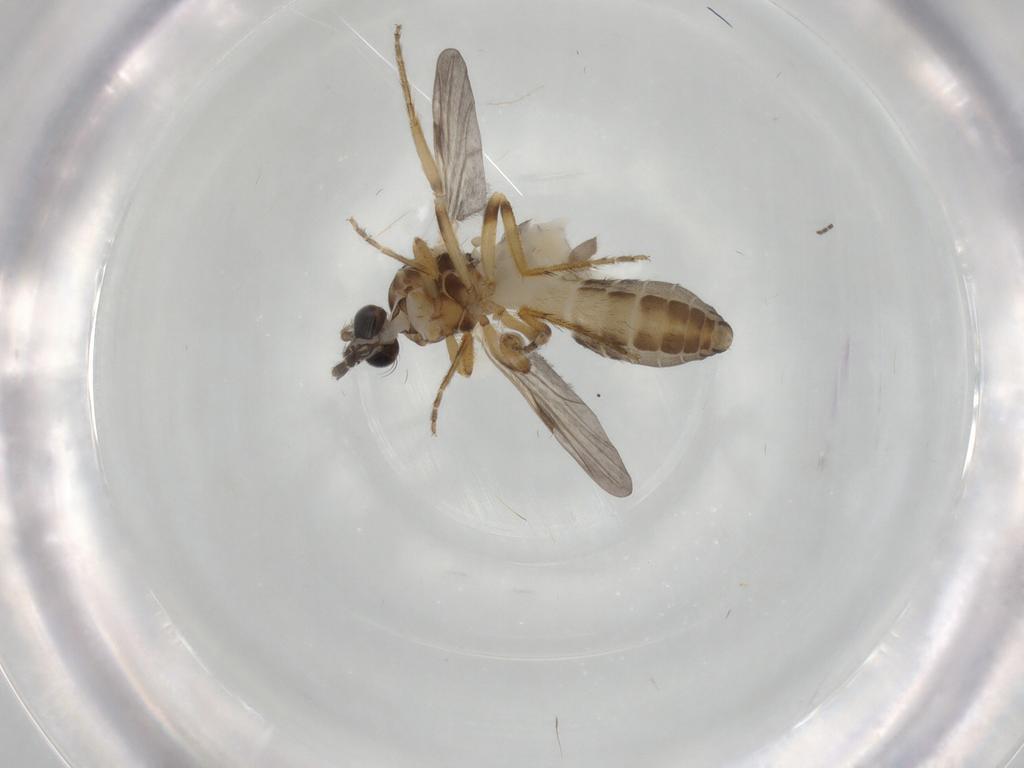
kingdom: Animalia
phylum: Arthropoda
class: Insecta
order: Diptera
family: Ceratopogonidae
